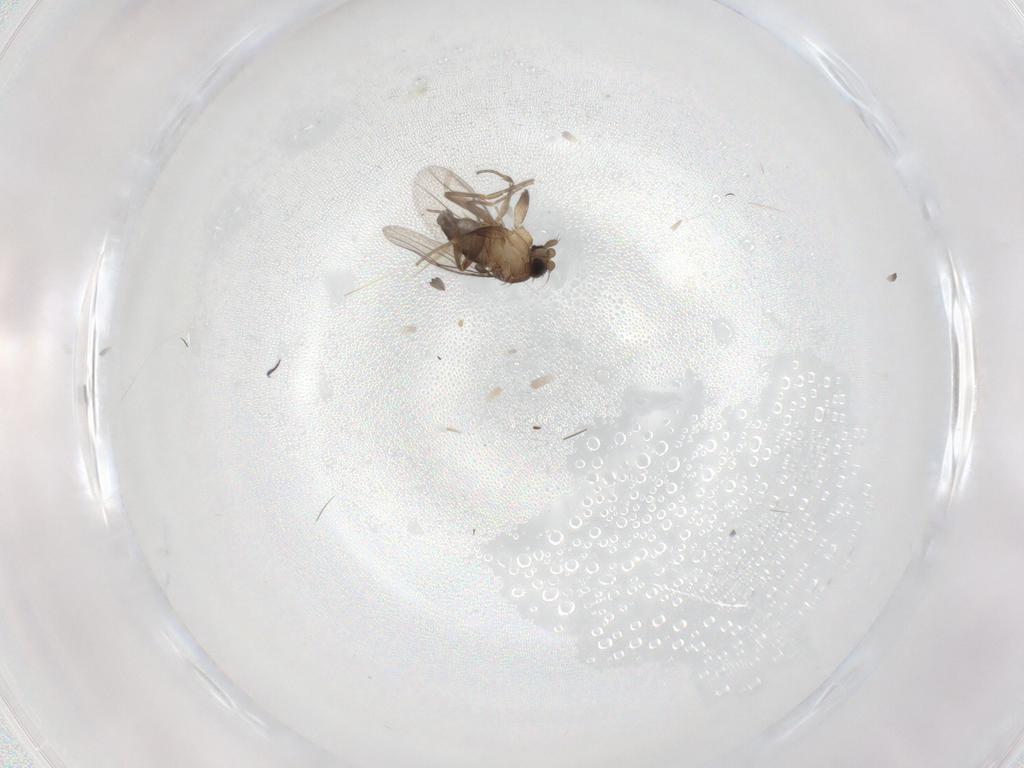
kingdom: Animalia
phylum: Arthropoda
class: Insecta
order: Diptera
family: Phoridae
